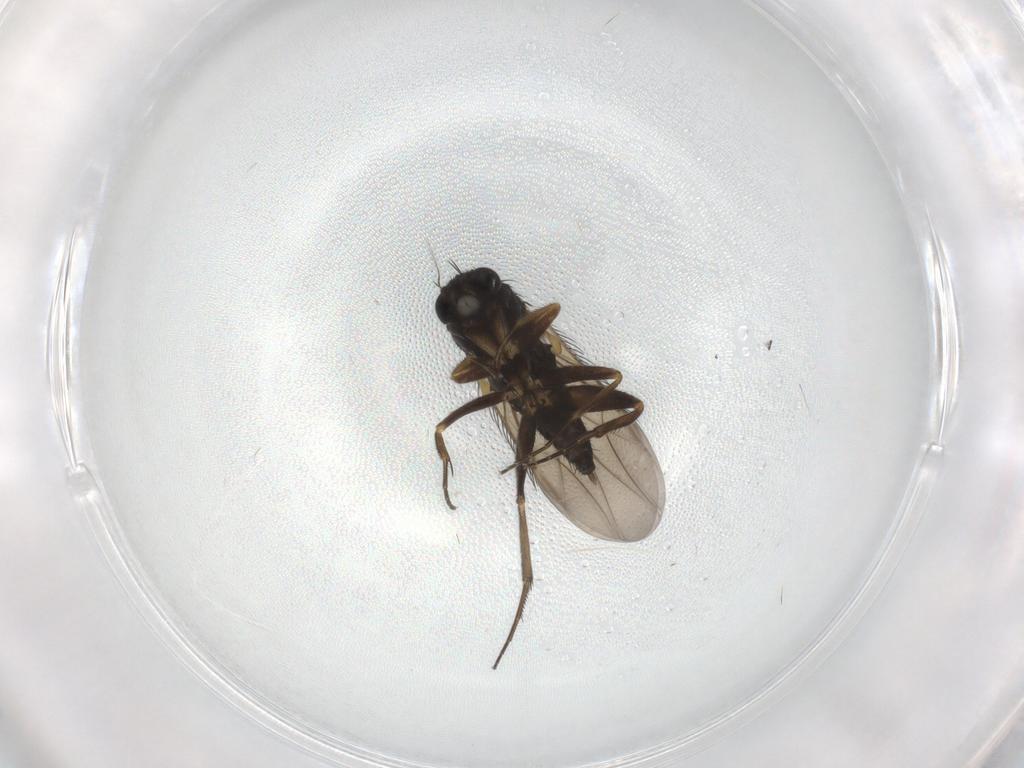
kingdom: Animalia
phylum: Arthropoda
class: Insecta
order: Diptera
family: Phoridae
